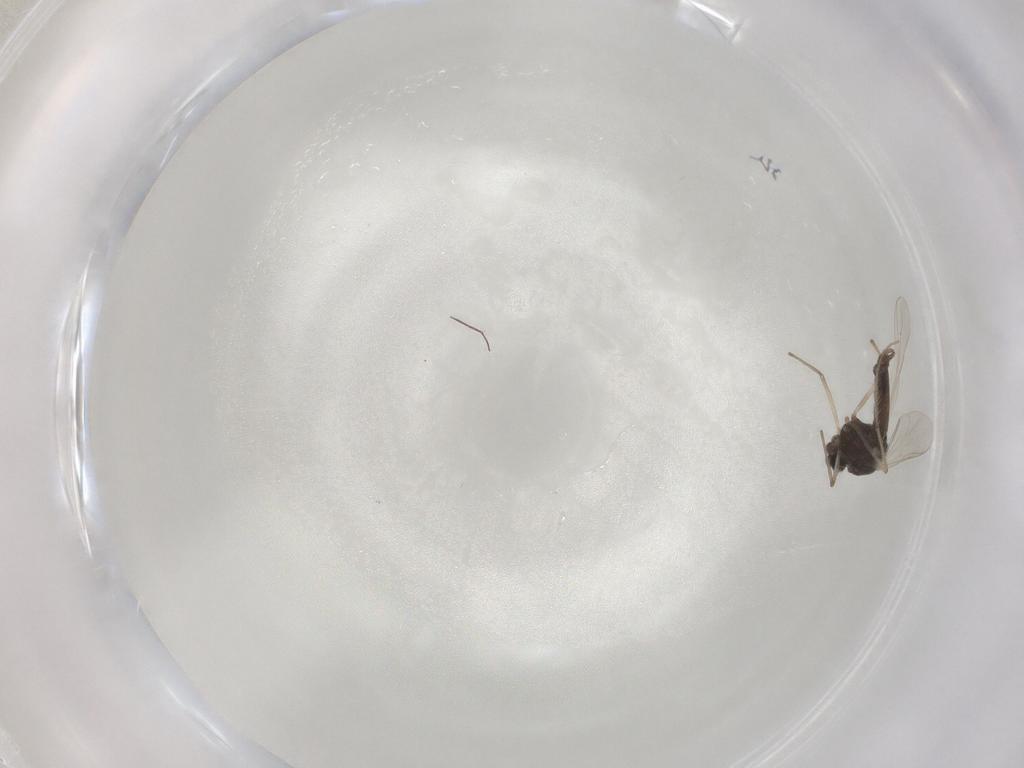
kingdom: Animalia
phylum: Arthropoda
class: Insecta
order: Diptera
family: Chironomidae
